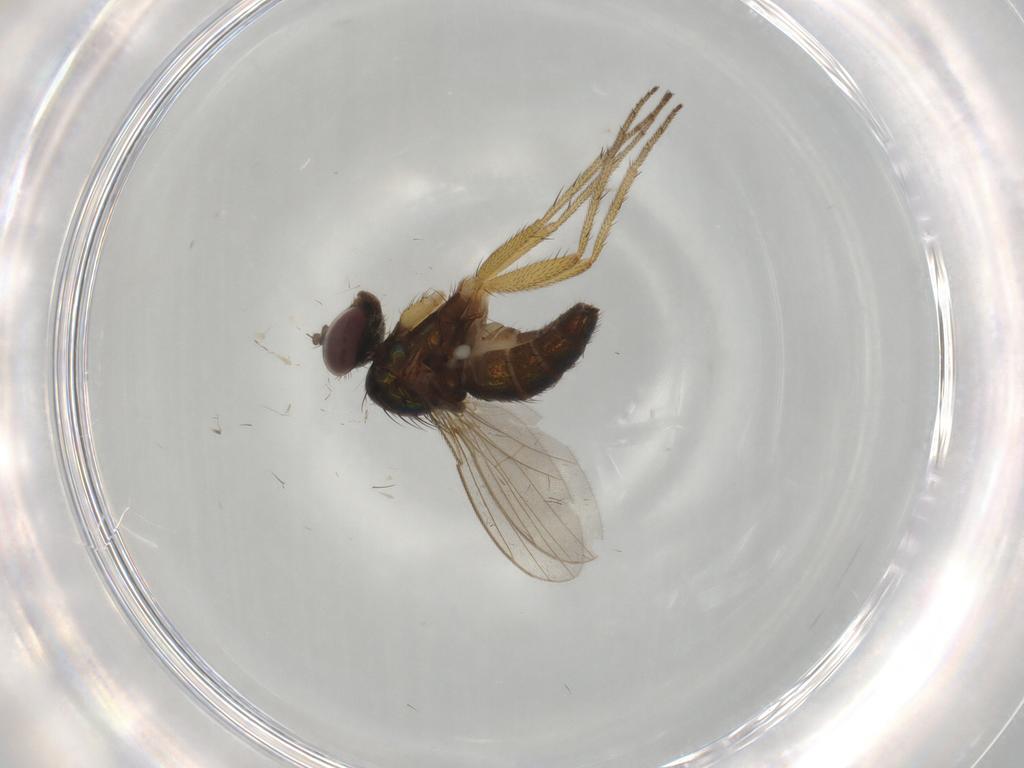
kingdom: Animalia
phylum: Arthropoda
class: Insecta
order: Diptera
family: Dolichopodidae
